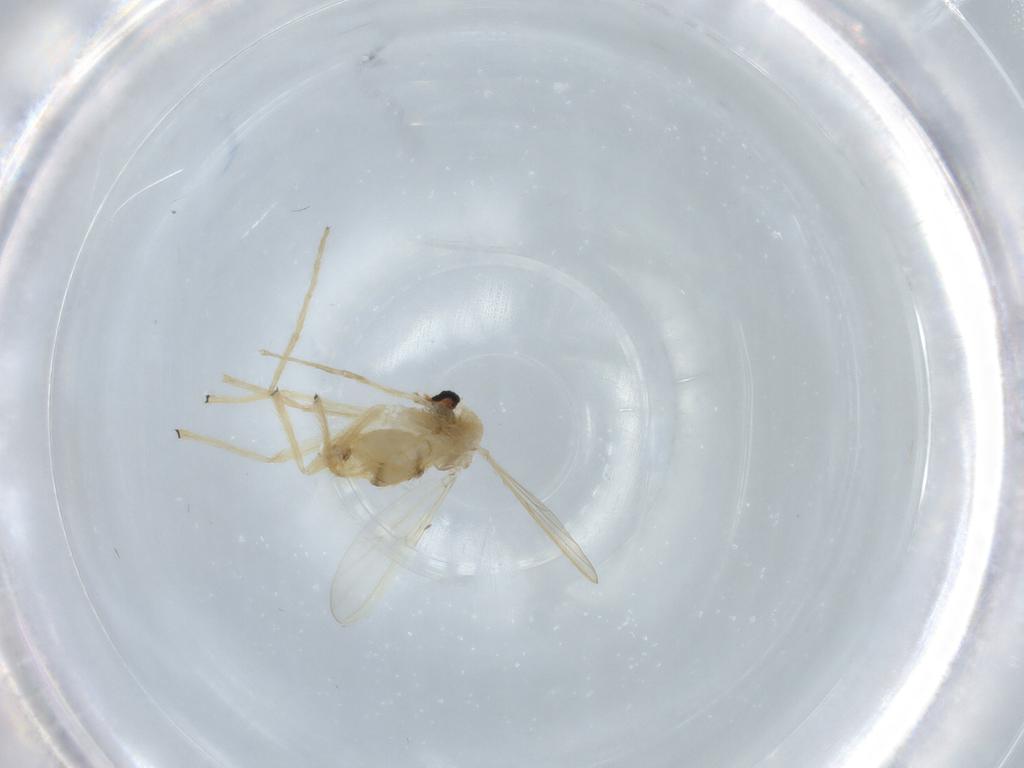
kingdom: Animalia
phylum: Arthropoda
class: Insecta
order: Diptera
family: Chironomidae
